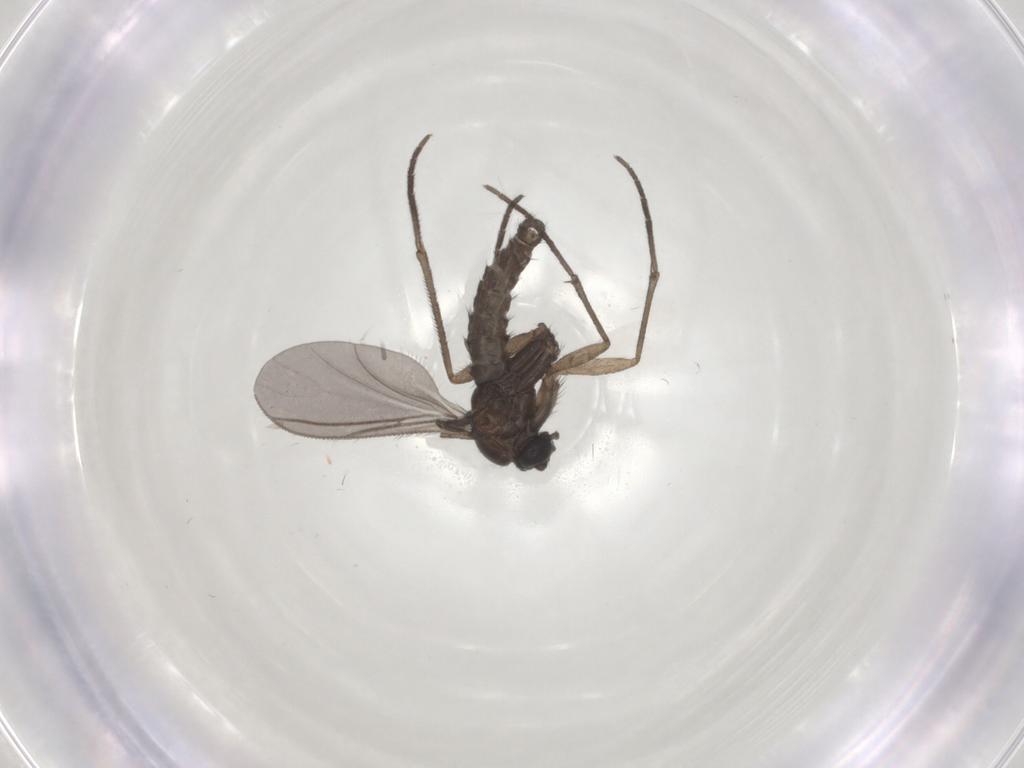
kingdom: Animalia
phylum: Arthropoda
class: Insecta
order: Diptera
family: Sciaridae
